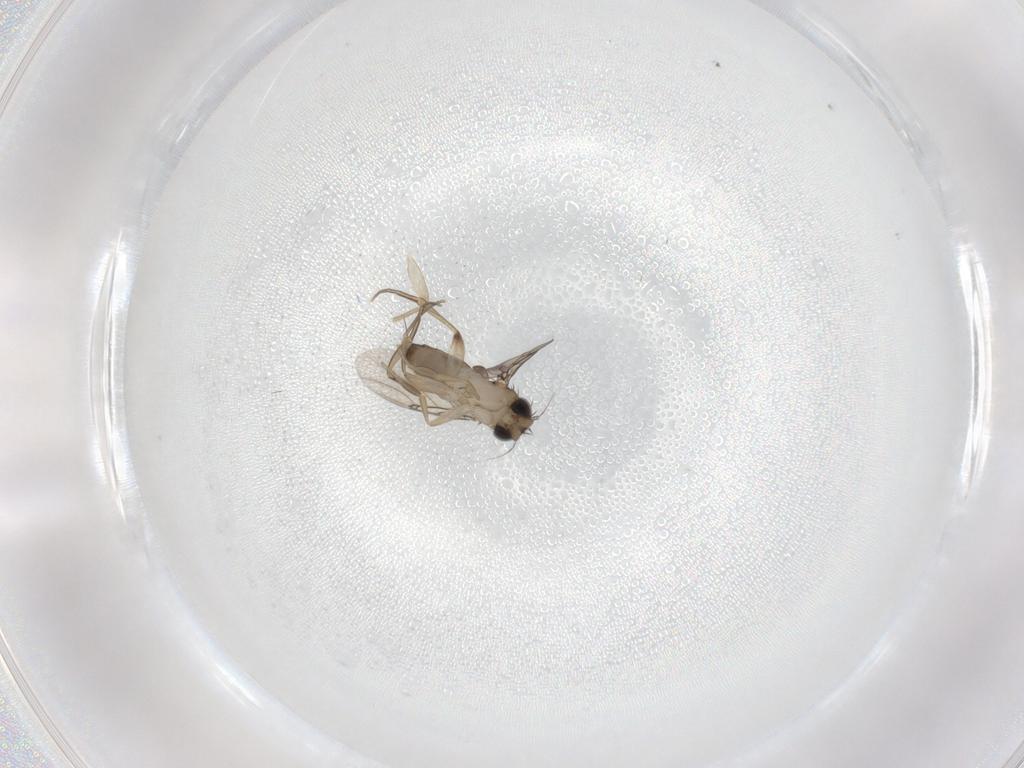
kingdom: Animalia
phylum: Arthropoda
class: Insecta
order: Diptera
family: Phoridae
